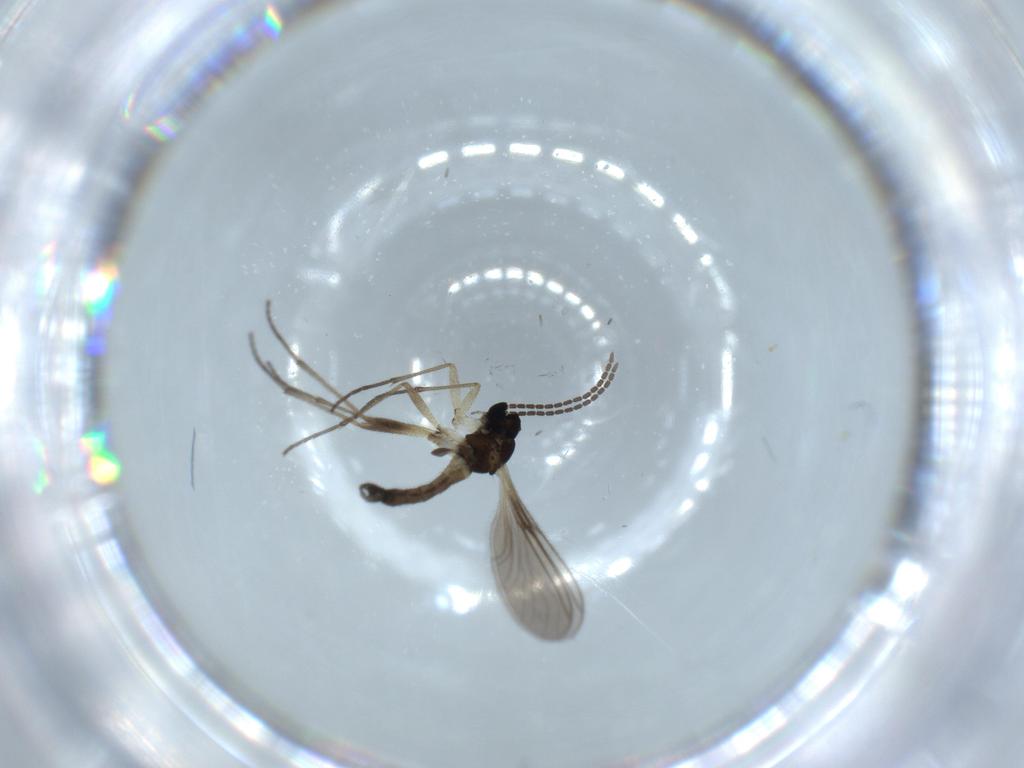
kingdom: Animalia
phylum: Arthropoda
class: Insecta
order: Diptera
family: Sciaridae
